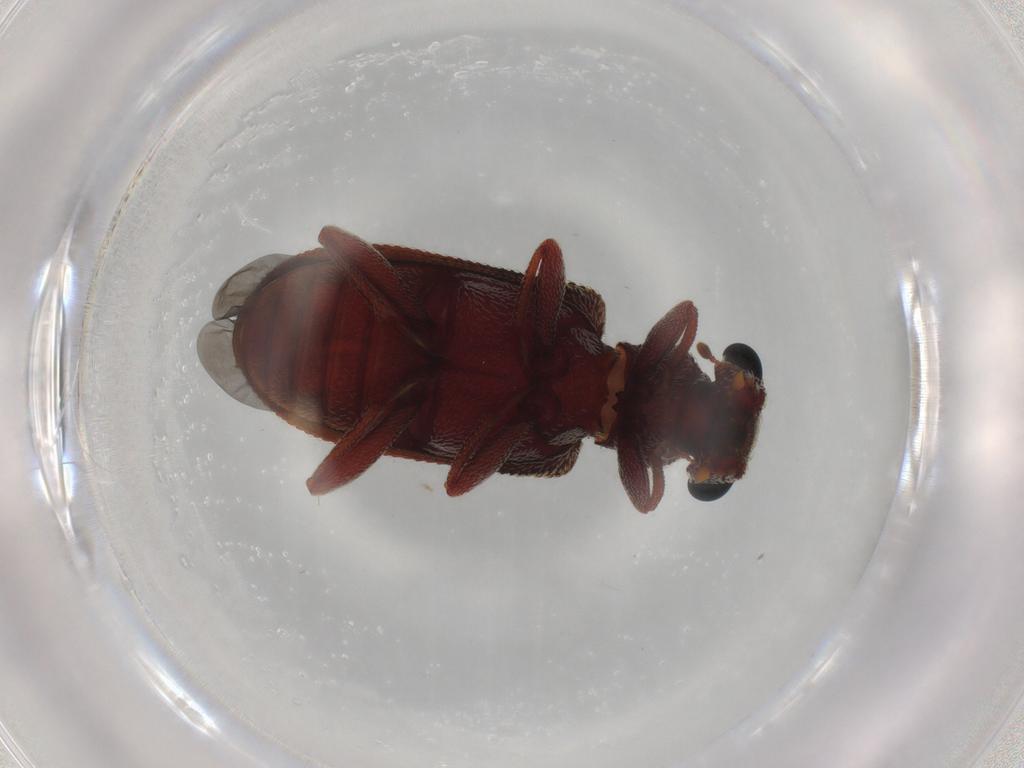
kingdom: Animalia
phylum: Arthropoda
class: Insecta
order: Coleoptera
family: Zopheridae
